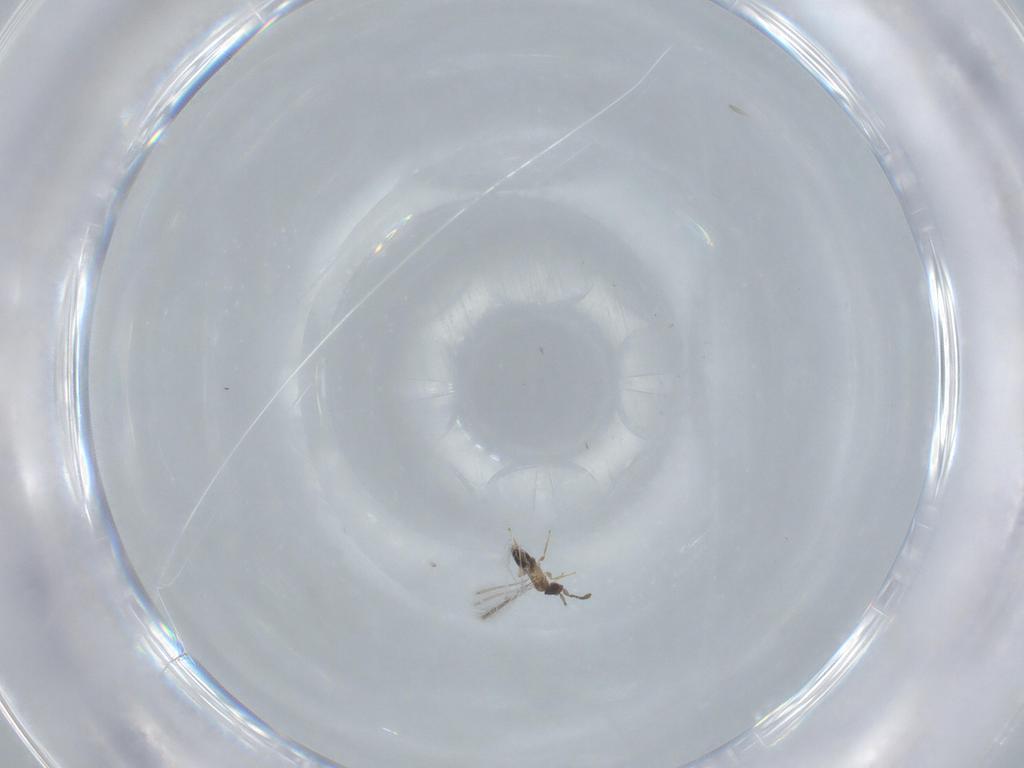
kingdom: Animalia
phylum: Arthropoda
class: Insecta
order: Hymenoptera
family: Mymaridae
